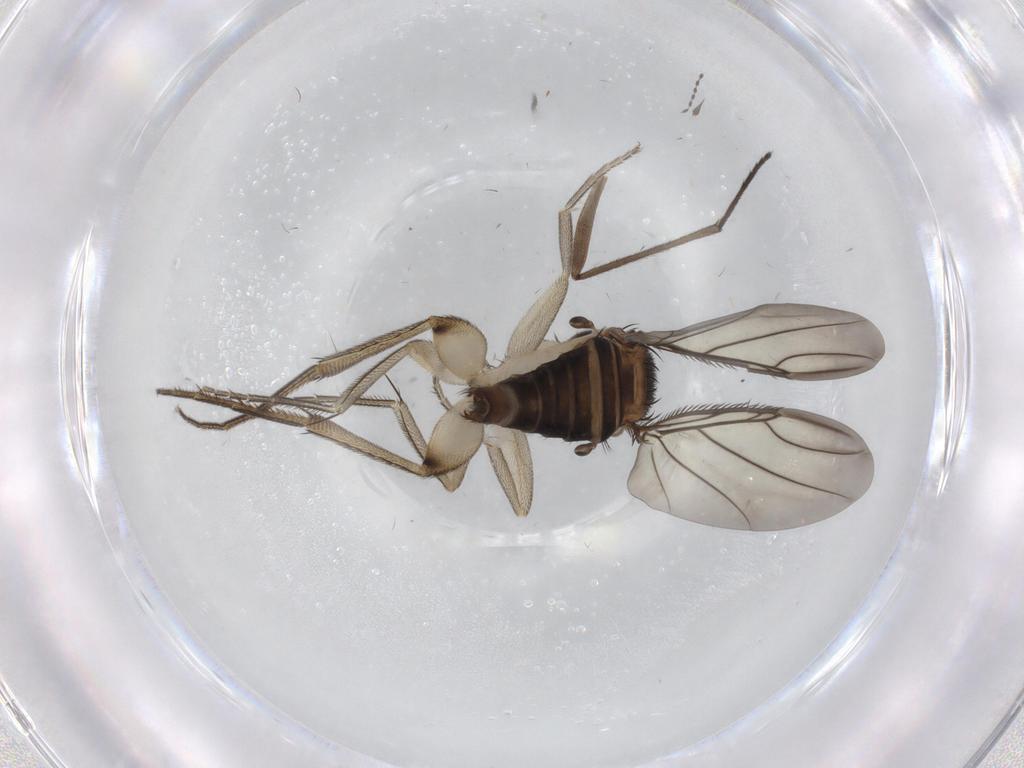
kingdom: Animalia
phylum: Arthropoda
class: Insecta
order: Diptera
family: Phoridae
